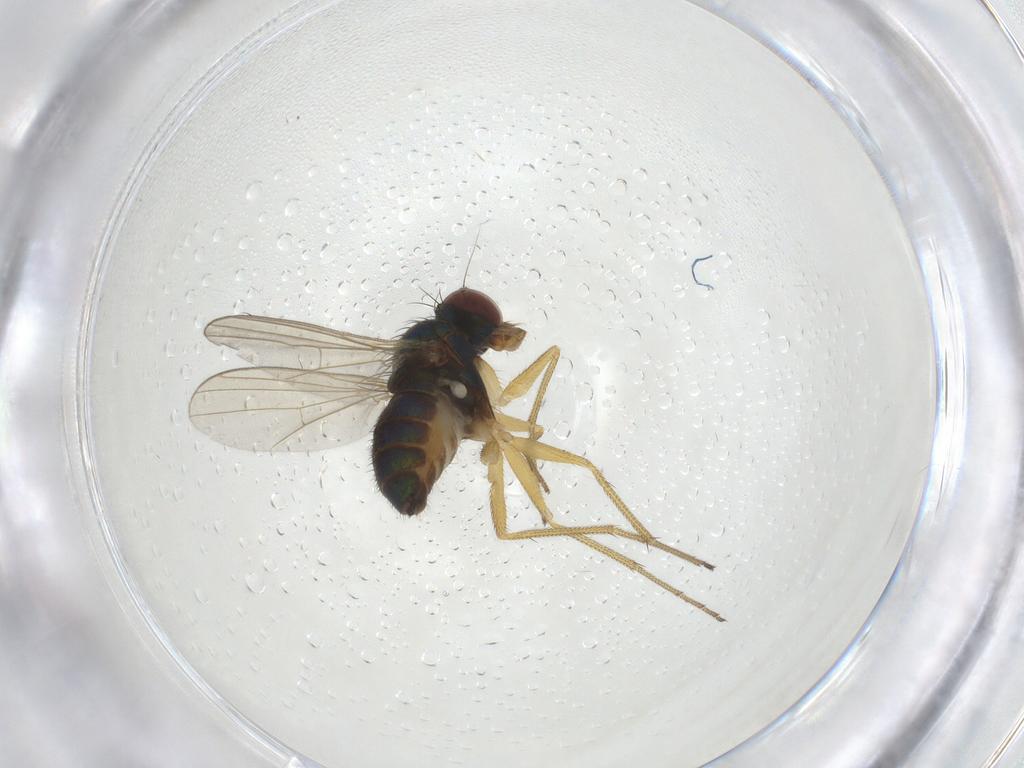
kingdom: Animalia
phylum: Arthropoda
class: Insecta
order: Diptera
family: Dolichopodidae
